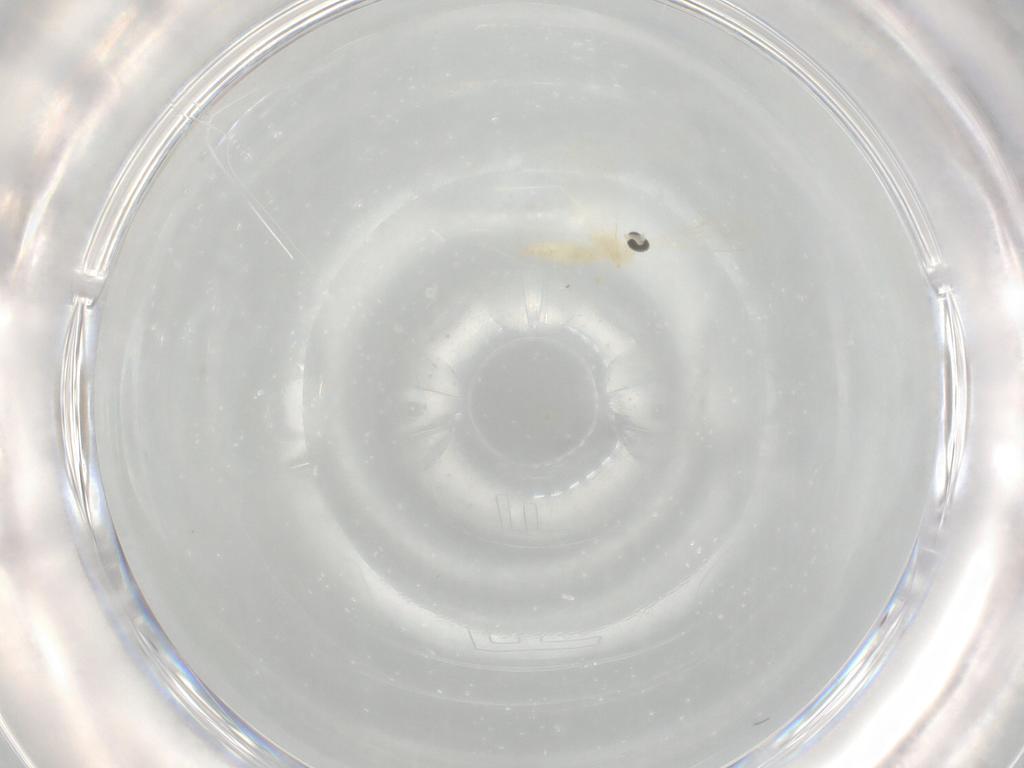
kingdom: Animalia
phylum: Arthropoda
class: Insecta
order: Diptera
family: Cecidomyiidae
